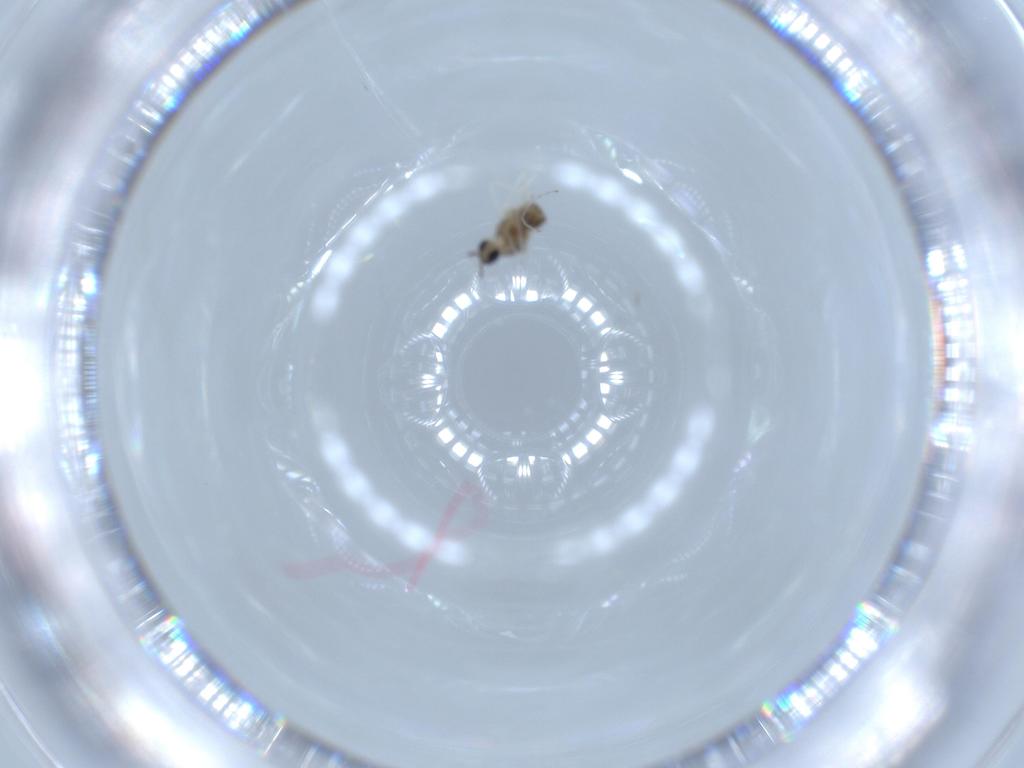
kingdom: Animalia
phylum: Arthropoda
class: Insecta
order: Diptera
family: Cecidomyiidae
